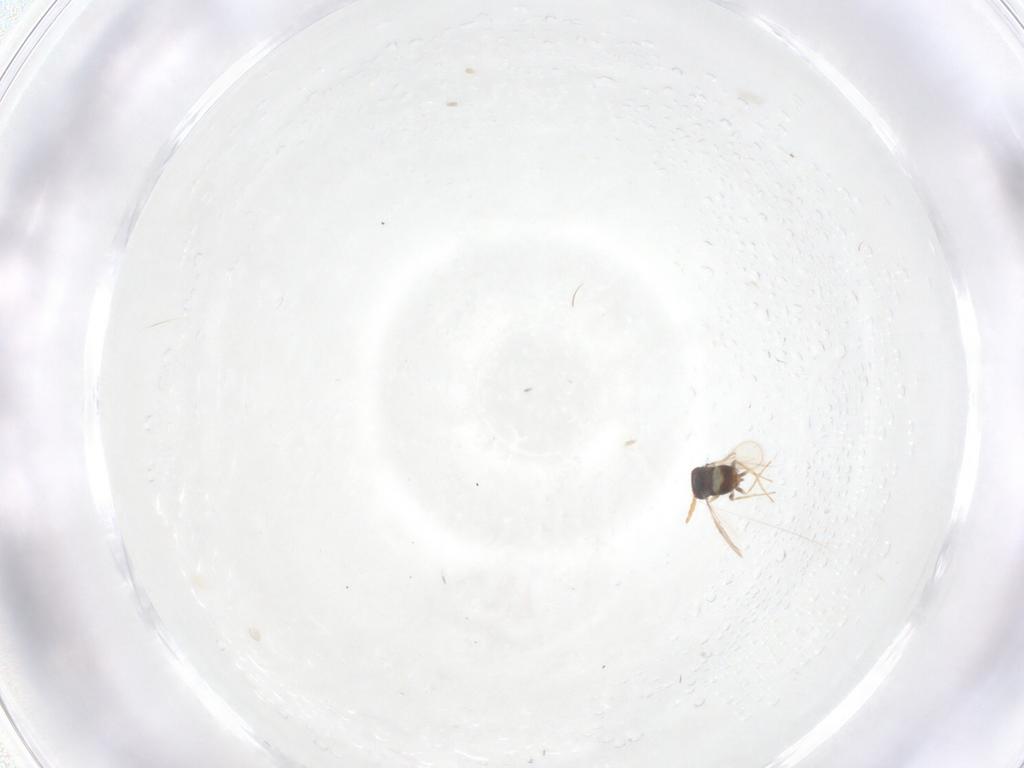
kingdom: Animalia
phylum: Arthropoda
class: Insecta
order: Hymenoptera
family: Aphelinidae
